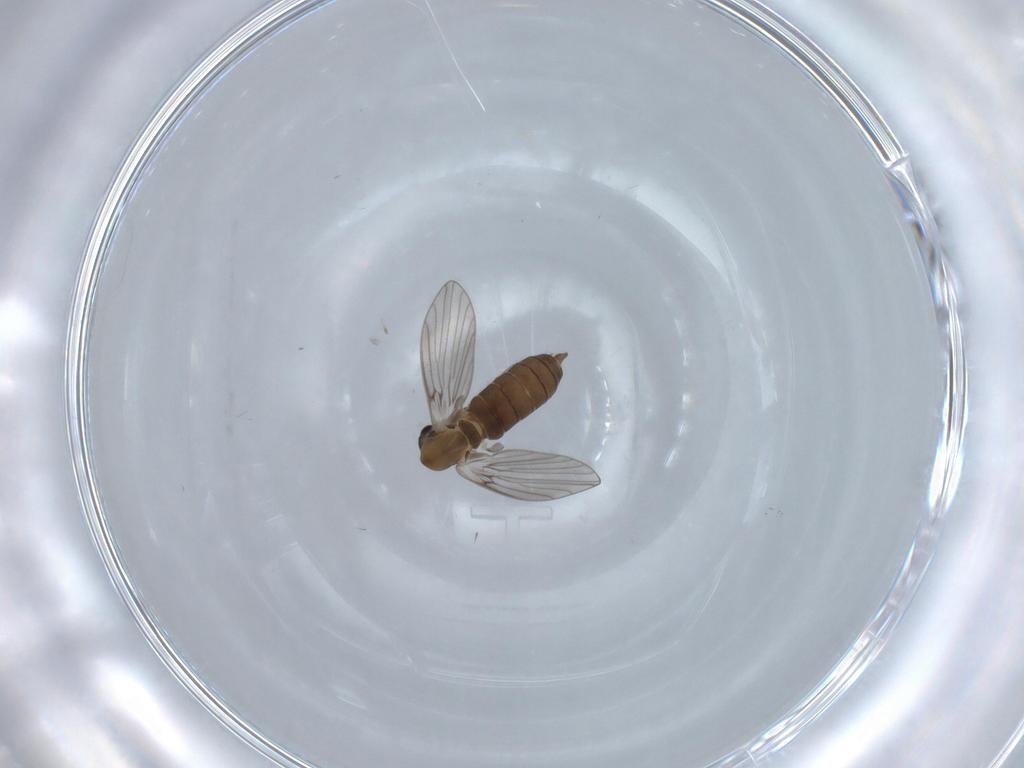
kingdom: Animalia
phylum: Arthropoda
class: Insecta
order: Diptera
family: Psychodidae
